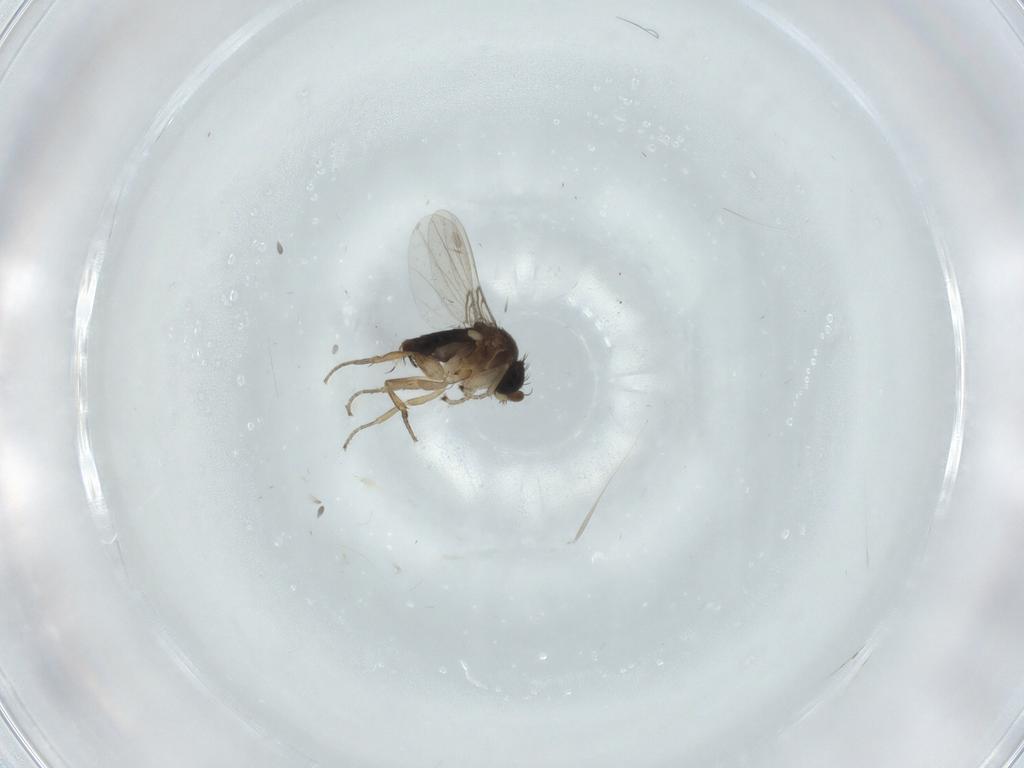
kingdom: Animalia
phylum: Arthropoda
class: Insecta
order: Diptera
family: Phoridae
